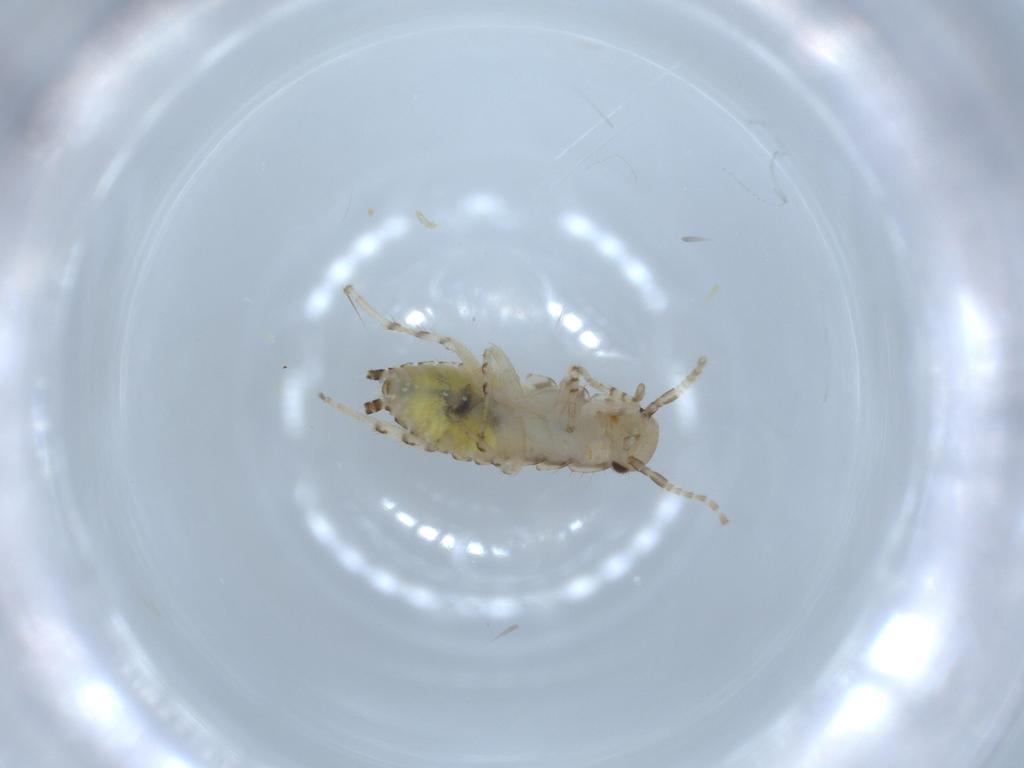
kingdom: Animalia
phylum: Arthropoda
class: Insecta
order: Blattodea
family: Ectobiidae
